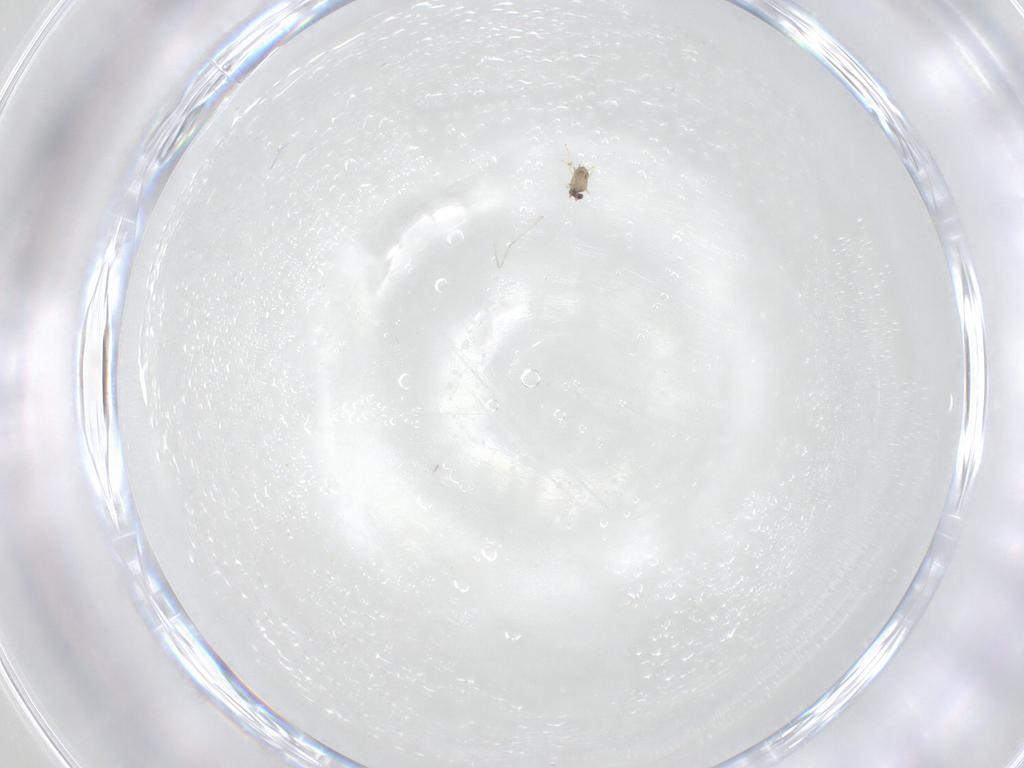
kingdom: Animalia
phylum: Arthropoda
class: Insecta
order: Diptera
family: Cecidomyiidae
